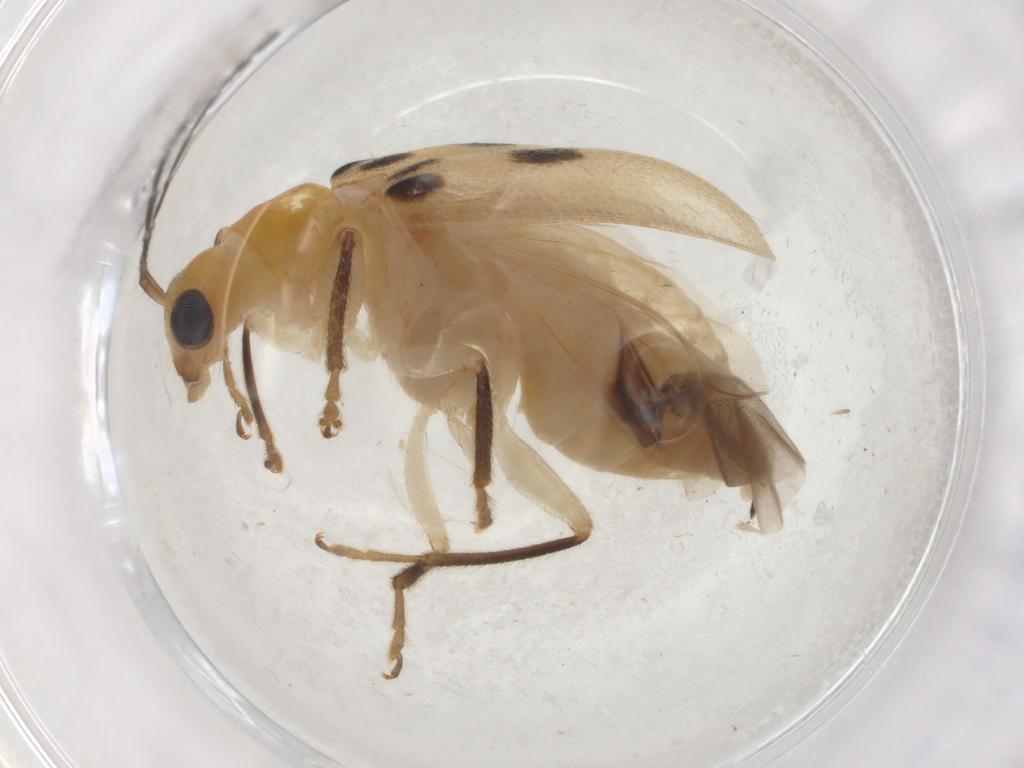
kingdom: Animalia
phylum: Arthropoda
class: Insecta
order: Coleoptera
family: Chrysomelidae
